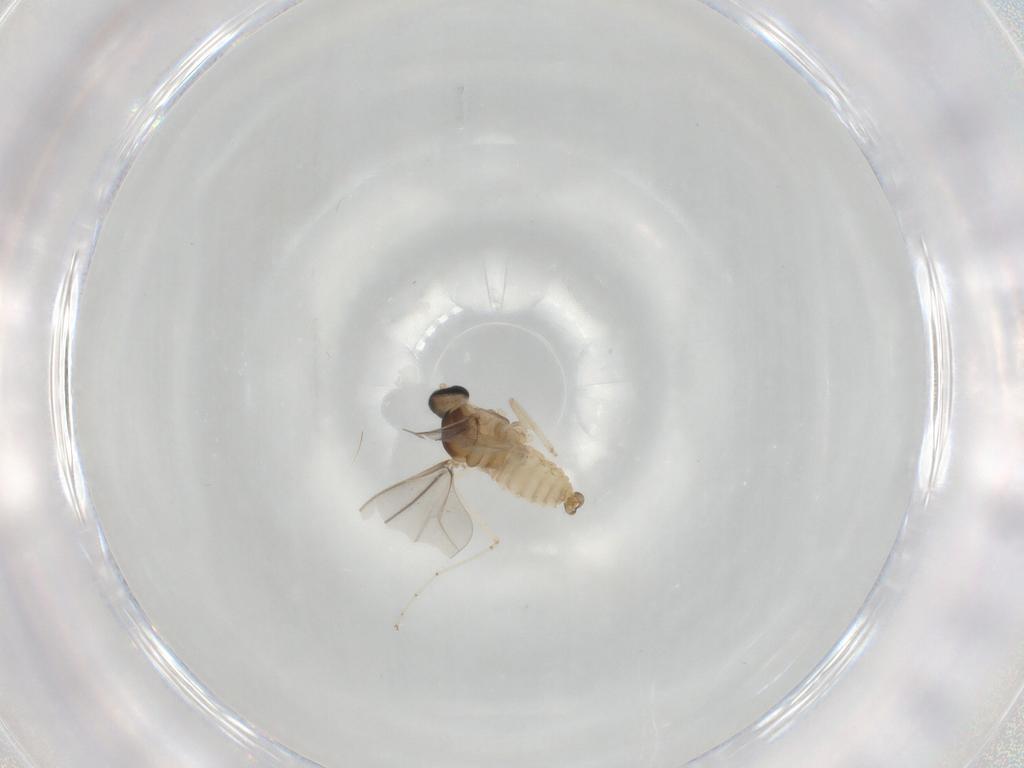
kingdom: Animalia
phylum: Arthropoda
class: Insecta
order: Diptera
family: Cecidomyiidae
